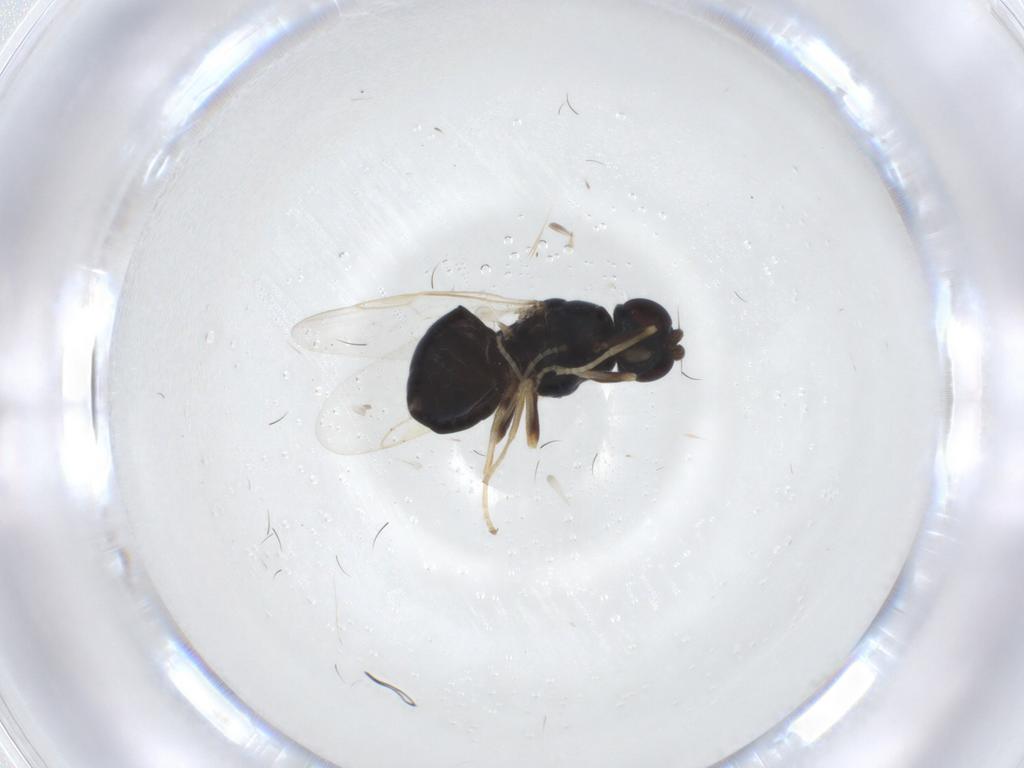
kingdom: Animalia
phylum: Arthropoda
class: Insecta
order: Diptera
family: Stratiomyidae
